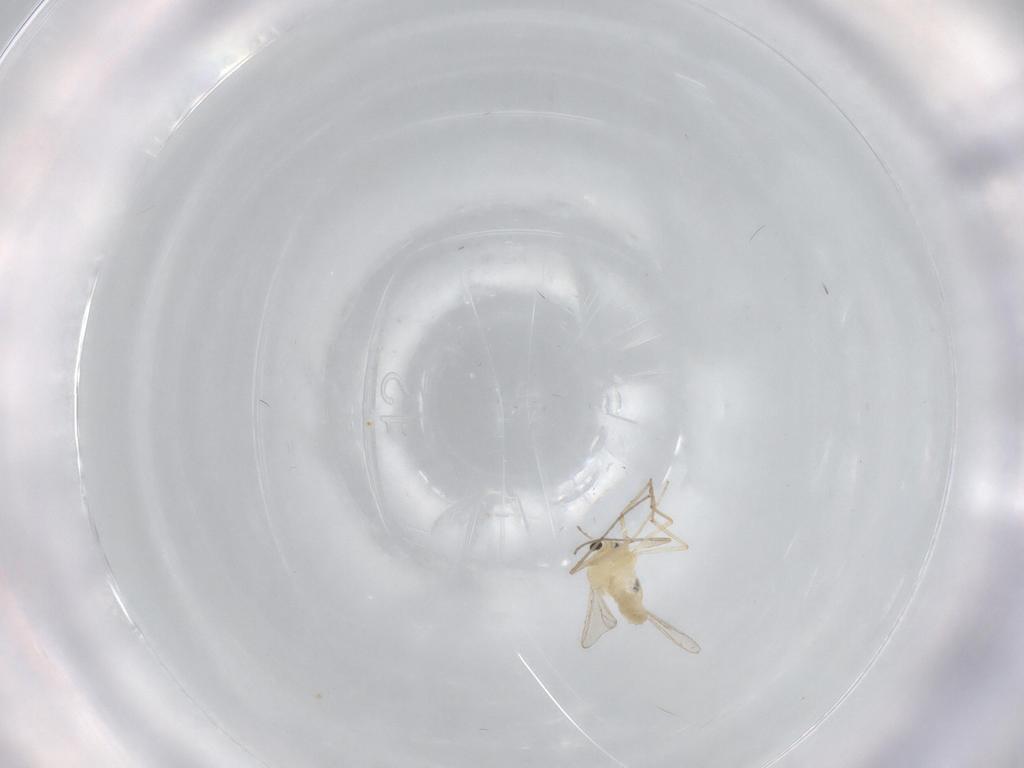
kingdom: Animalia
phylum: Arthropoda
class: Insecta
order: Diptera
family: Chironomidae
